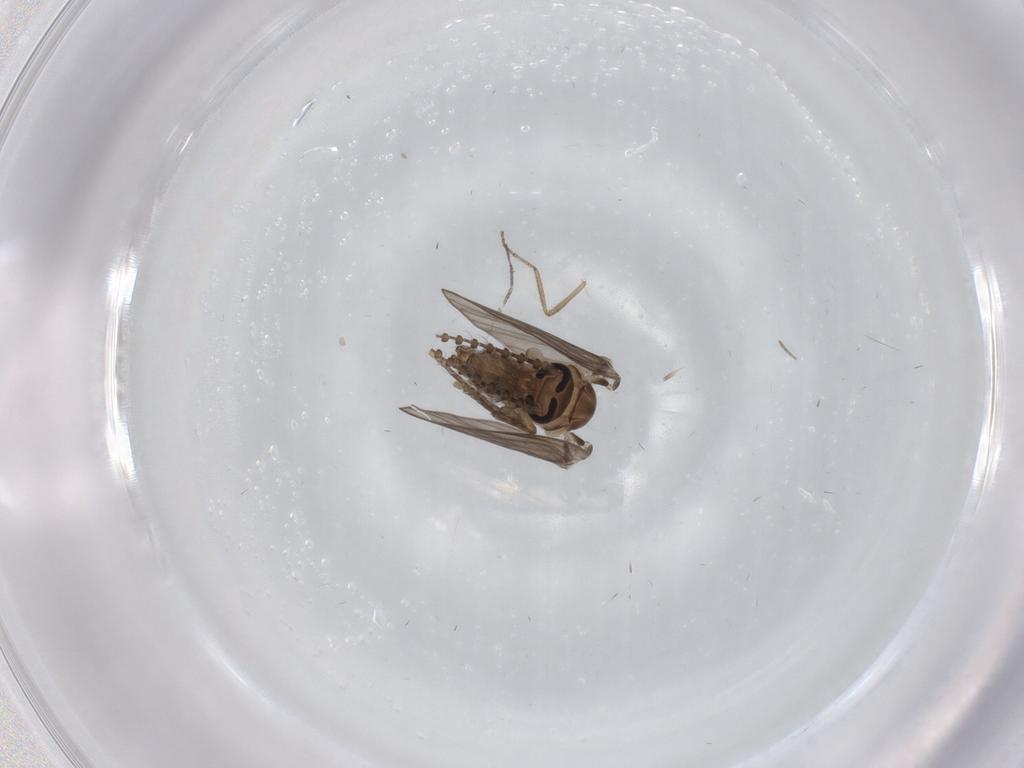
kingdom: Animalia
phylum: Arthropoda
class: Insecta
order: Diptera
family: Psychodidae
